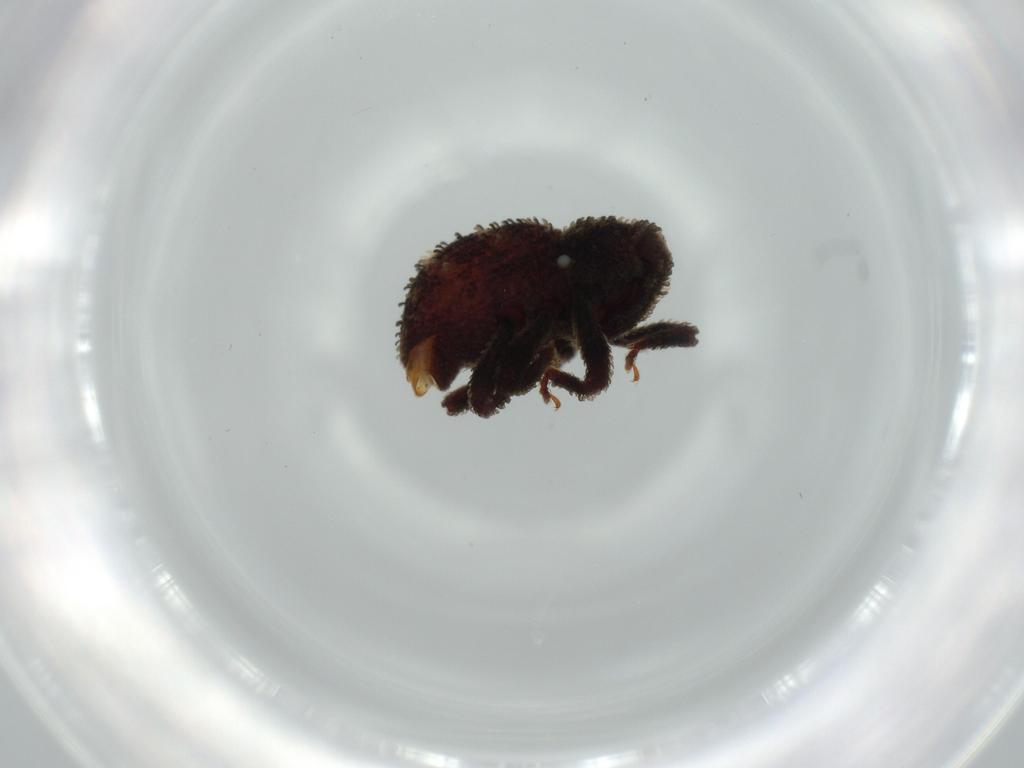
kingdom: Animalia
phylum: Arthropoda
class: Insecta
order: Coleoptera
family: Curculionidae
